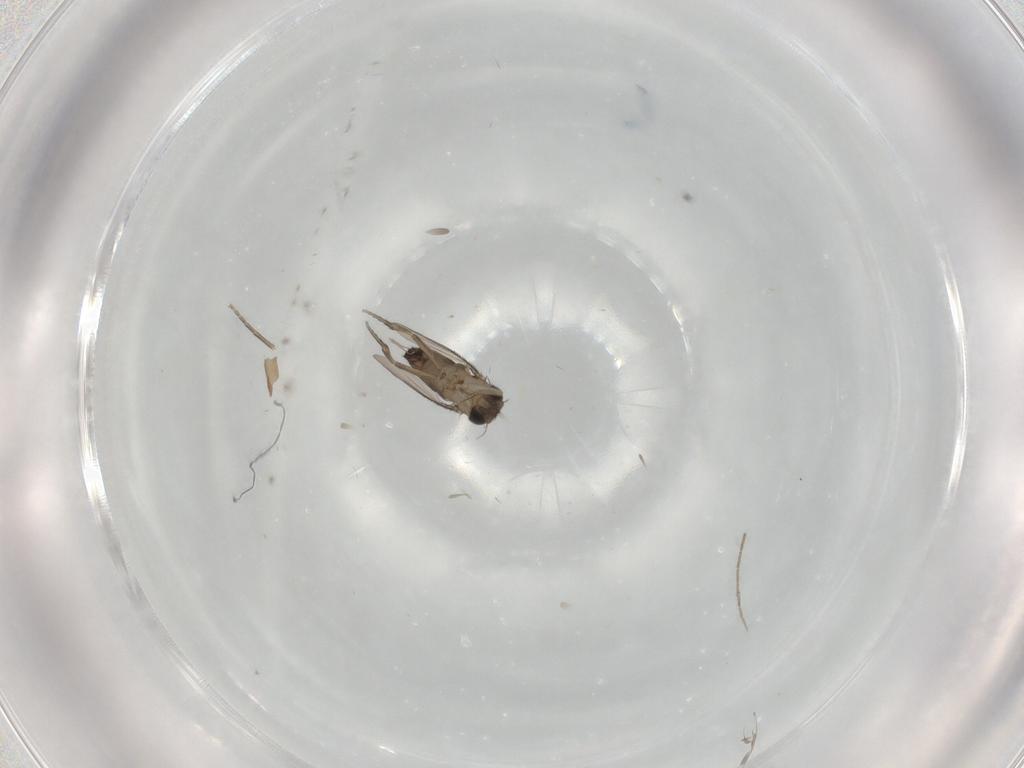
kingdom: Animalia
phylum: Arthropoda
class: Insecta
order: Diptera
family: Phoridae
